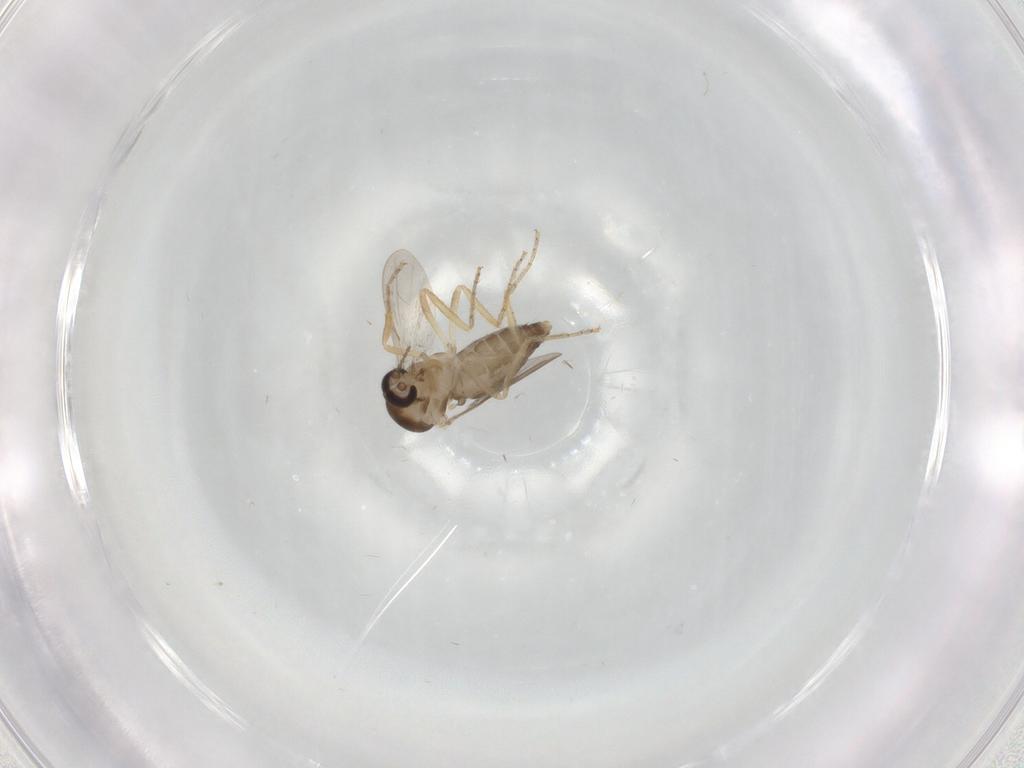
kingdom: Animalia
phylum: Arthropoda
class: Insecta
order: Diptera
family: Ceratopogonidae
